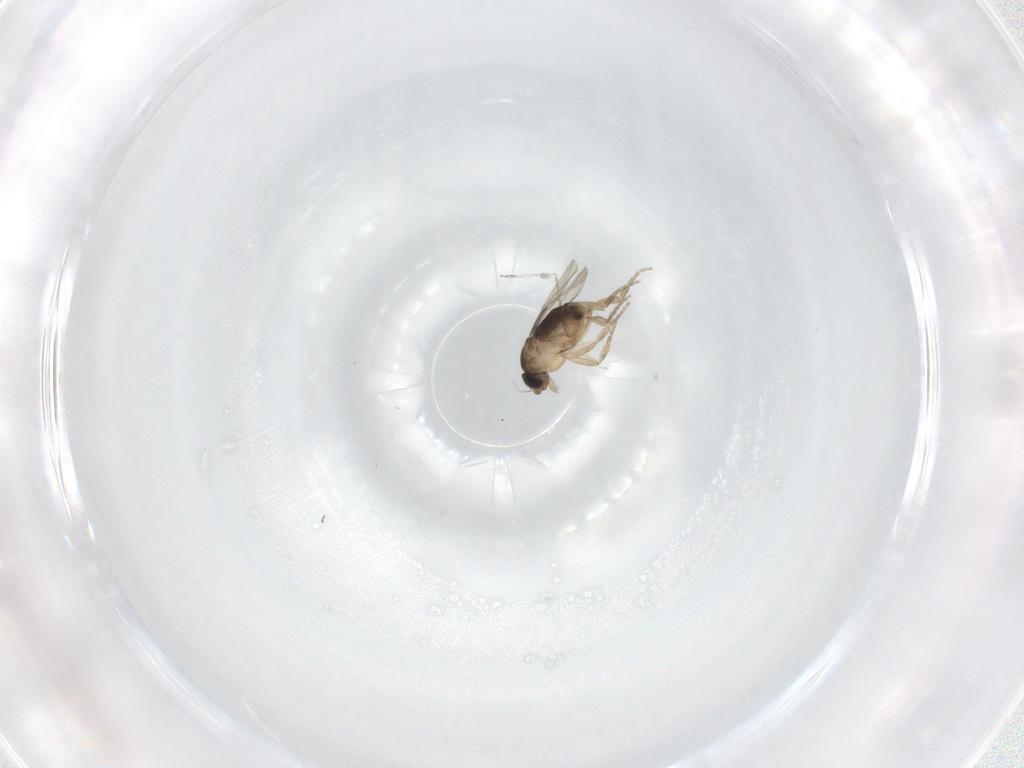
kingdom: Animalia
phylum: Arthropoda
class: Insecta
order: Diptera
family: Phoridae
